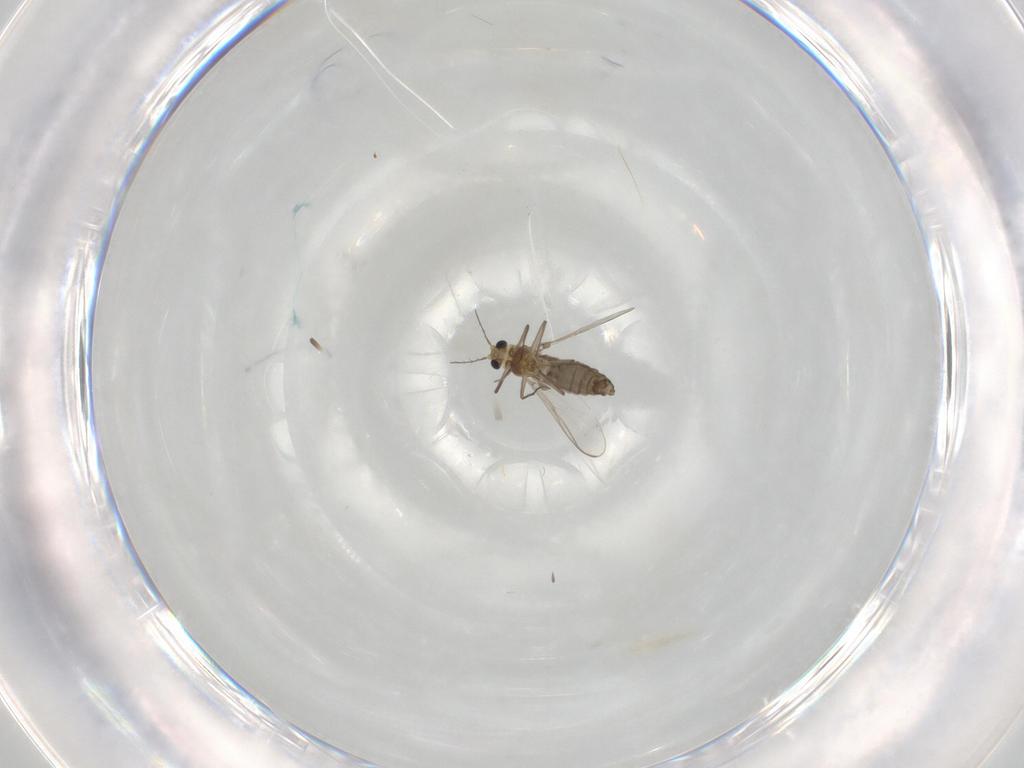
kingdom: Animalia
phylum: Arthropoda
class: Insecta
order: Diptera
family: Chironomidae
